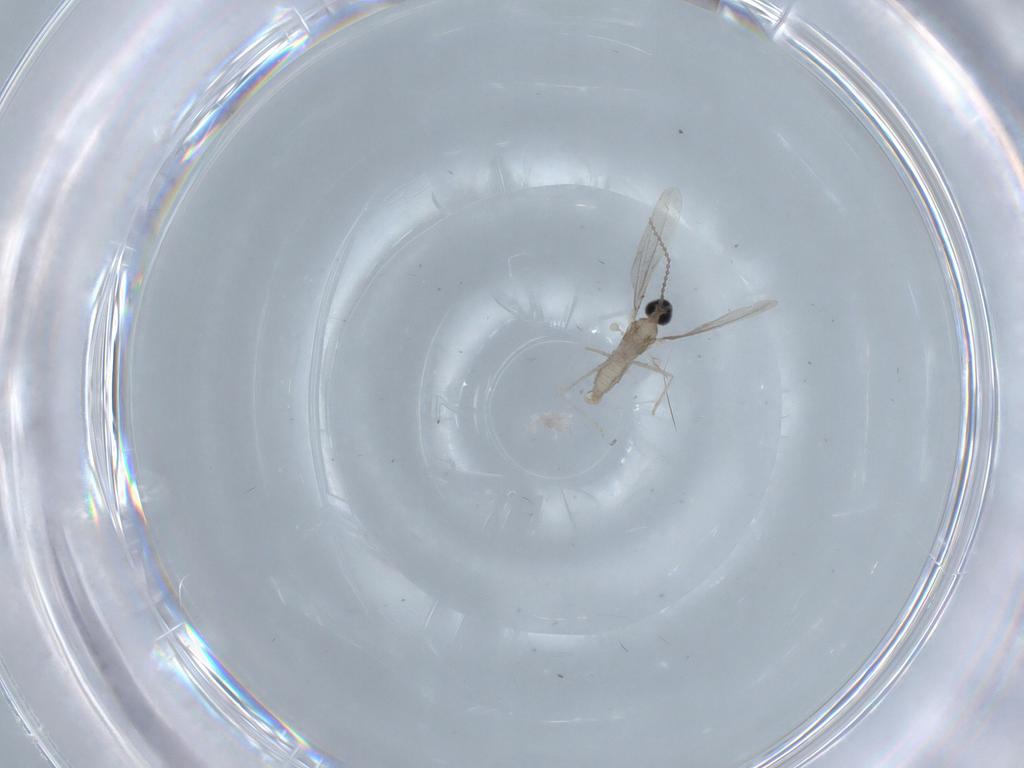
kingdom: Animalia
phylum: Arthropoda
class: Insecta
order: Diptera
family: Cecidomyiidae
